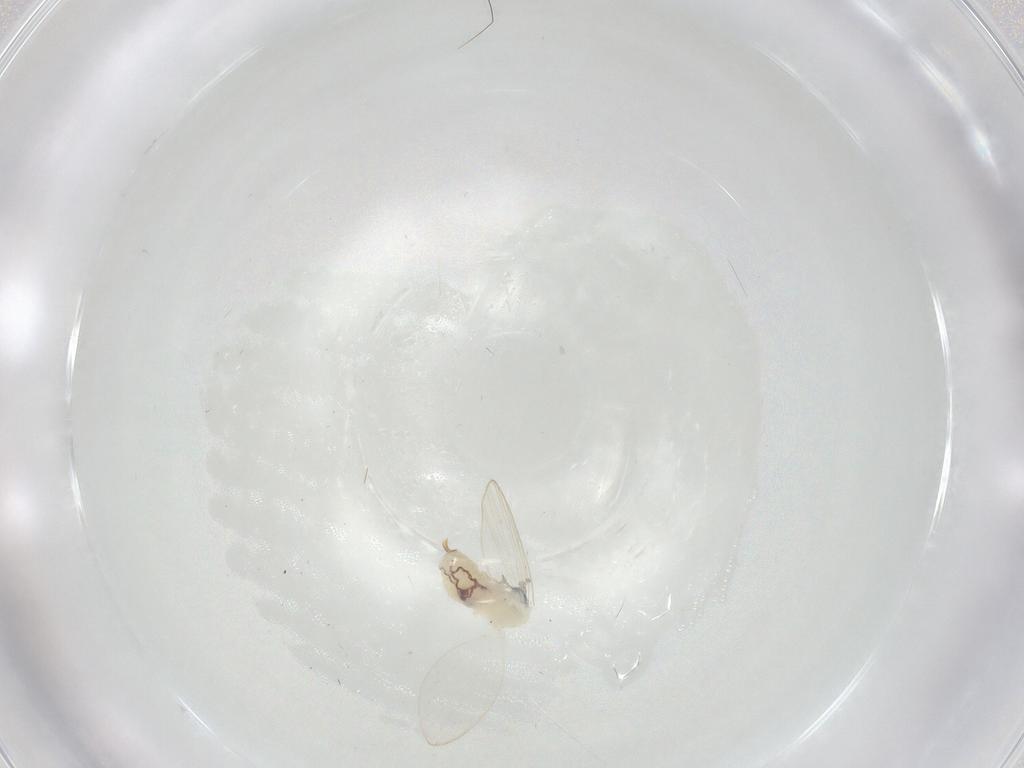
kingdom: Animalia
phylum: Arthropoda
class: Insecta
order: Diptera
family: Psychodidae
